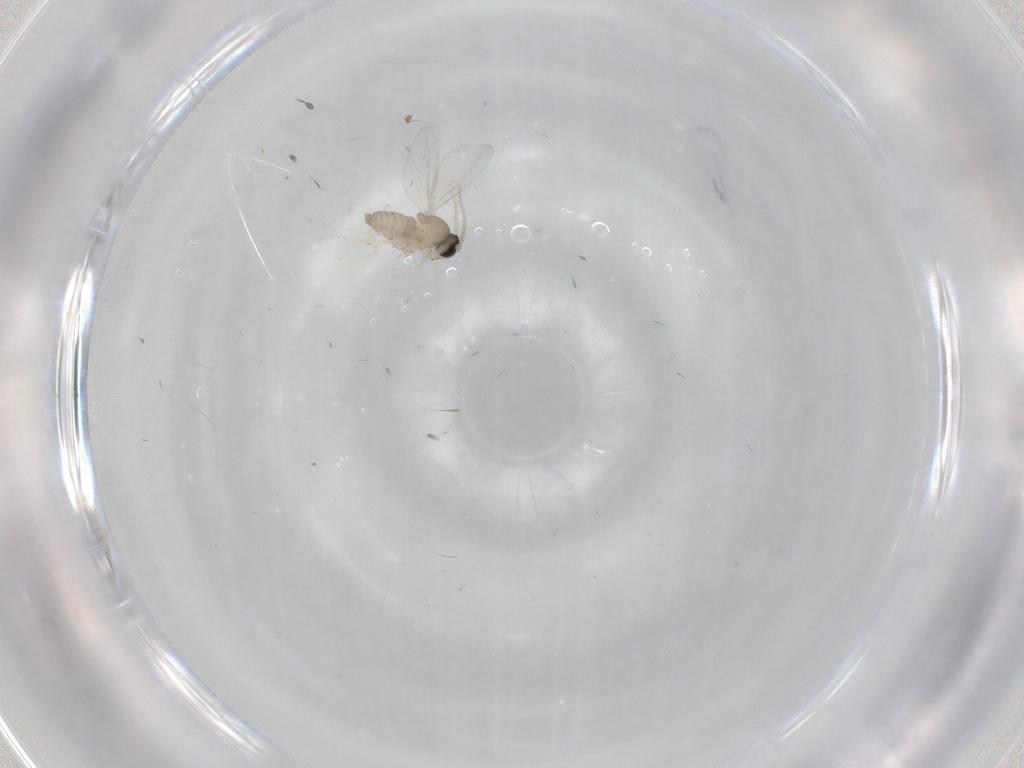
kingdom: Animalia
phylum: Arthropoda
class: Insecta
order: Diptera
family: Cecidomyiidae
